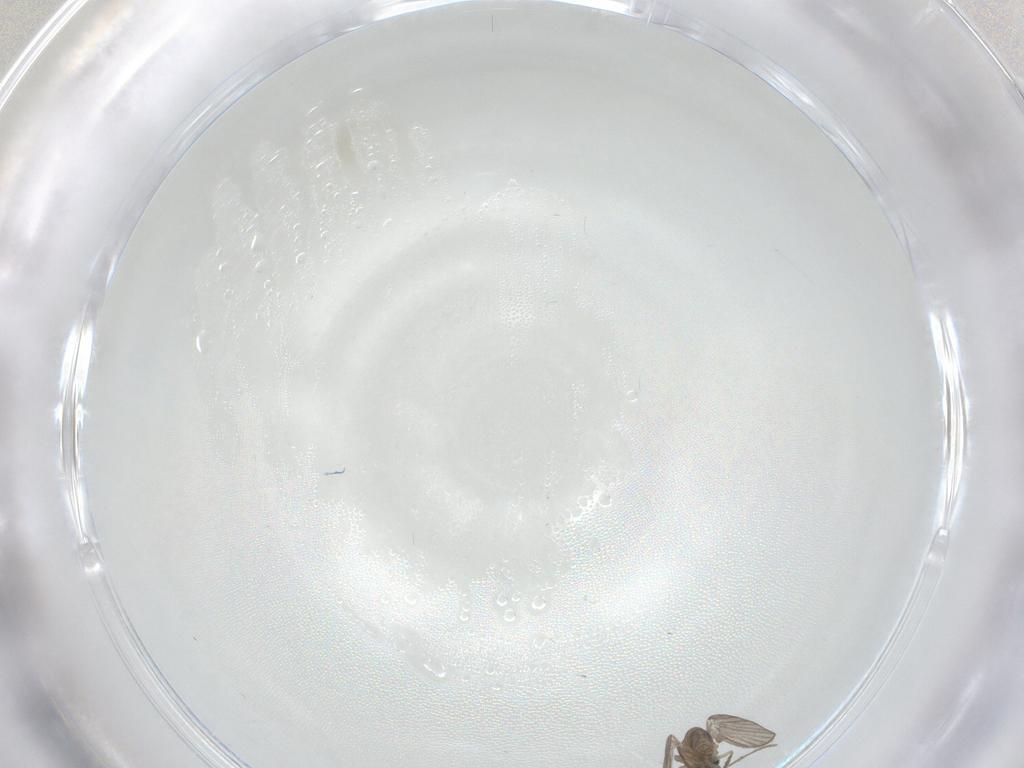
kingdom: Animalia
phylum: Arthropoda
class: Insecta
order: Diptera
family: Psychodidae
